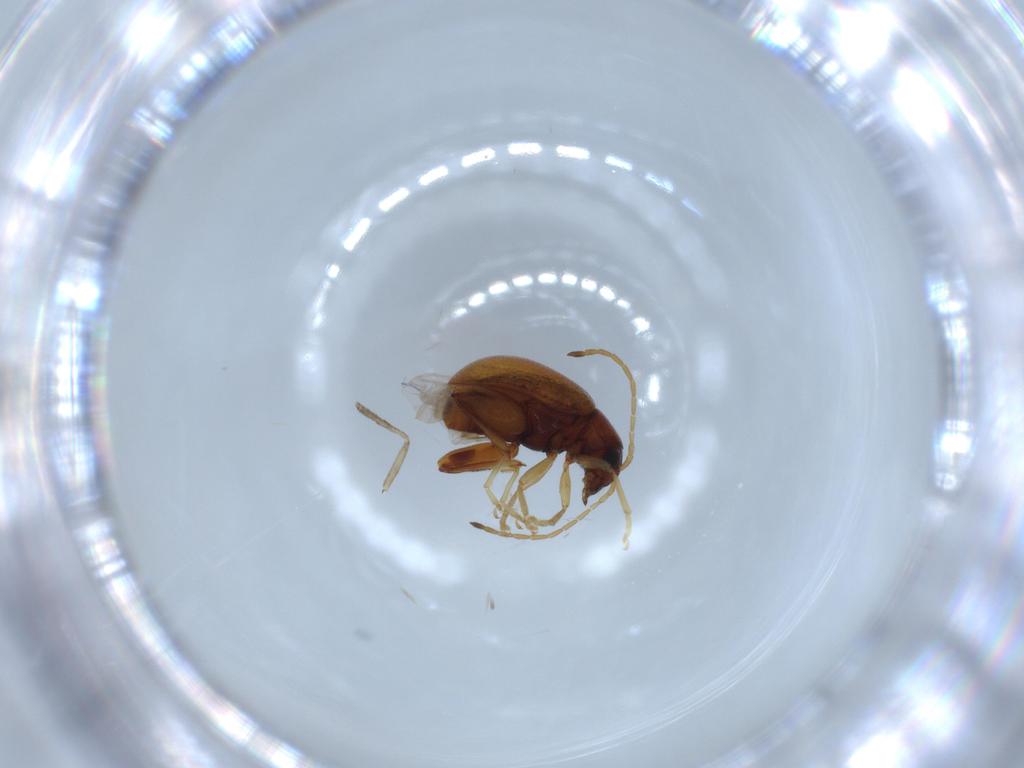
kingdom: Animalia
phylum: Arthropoda
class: Insecta
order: Coleoptera
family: Chrysomelidae
